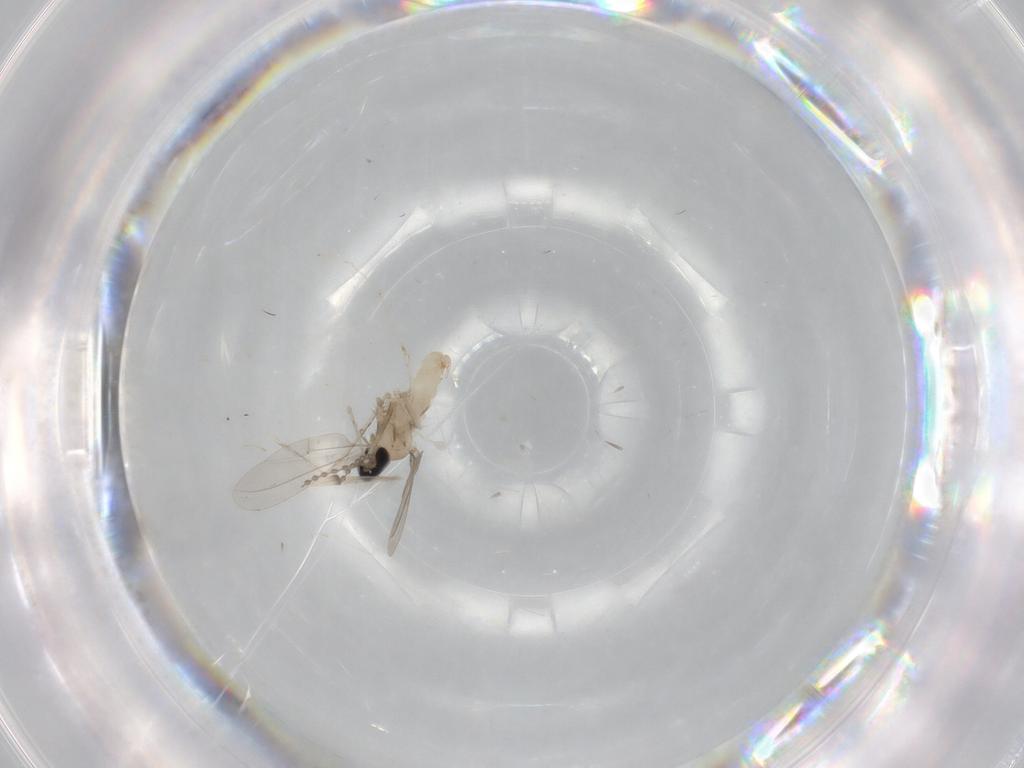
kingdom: Animalia
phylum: Arthropoda
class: Insecta
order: Diptera
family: Cecidomyiidae
